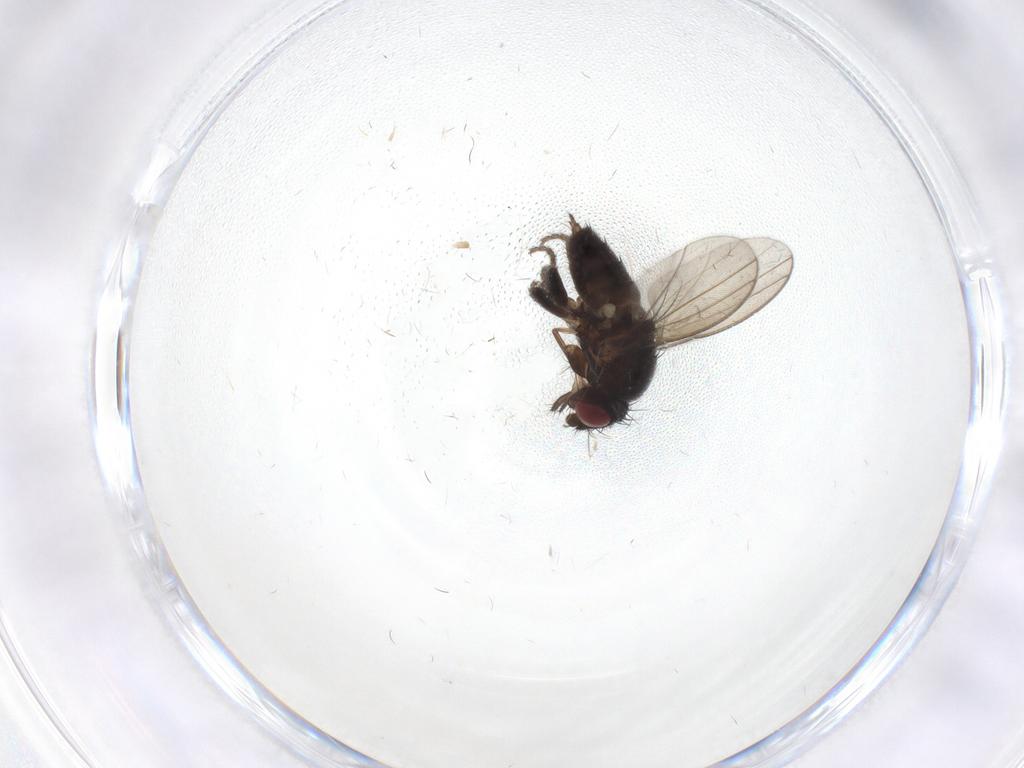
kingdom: Animalia
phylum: Arthropoda
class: Insecta
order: Diptera
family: Milichiidae
